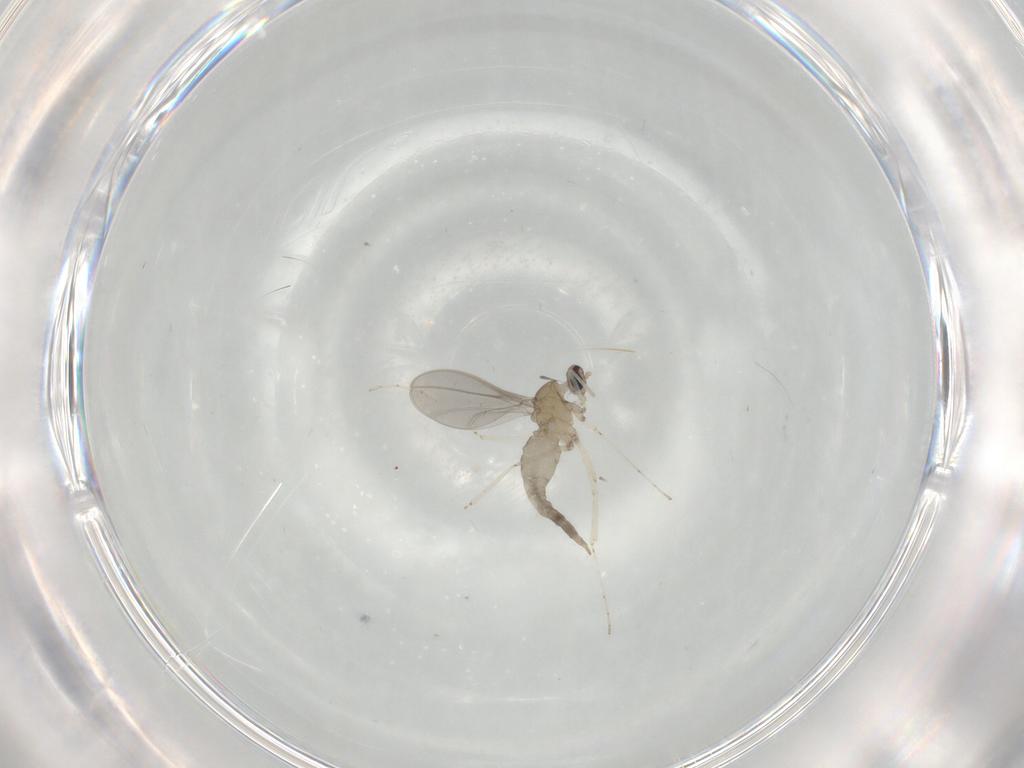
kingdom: Animalia
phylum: Arthropoda
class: Insecta
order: Diptera
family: Cecidomyiidae
